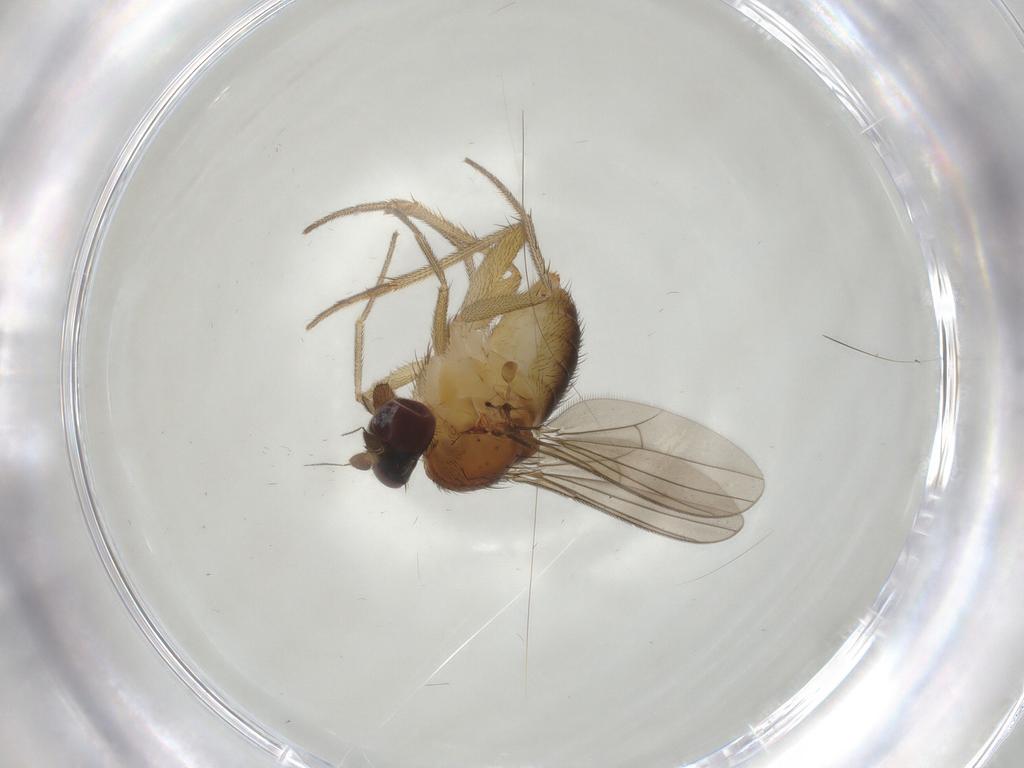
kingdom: Animalia
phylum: Arthropoda
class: Insecta
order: Diptera
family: Dolichopodidae
